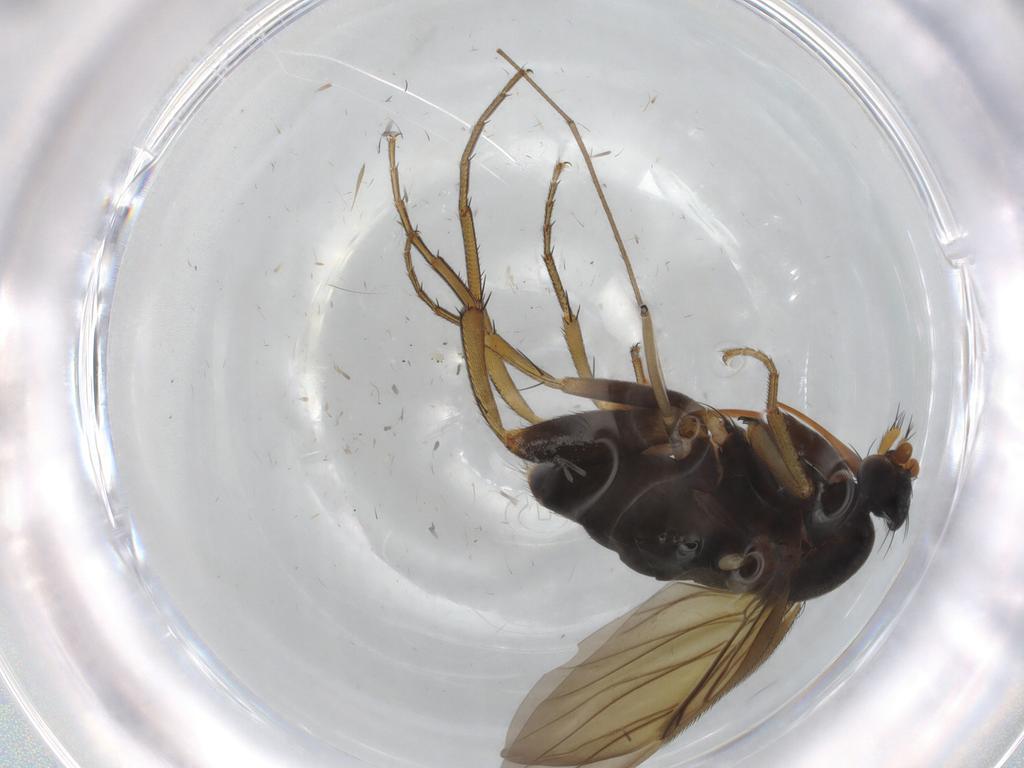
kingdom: Animalia
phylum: Arthropoda
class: Insecta
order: Diptera
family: Phoridae
